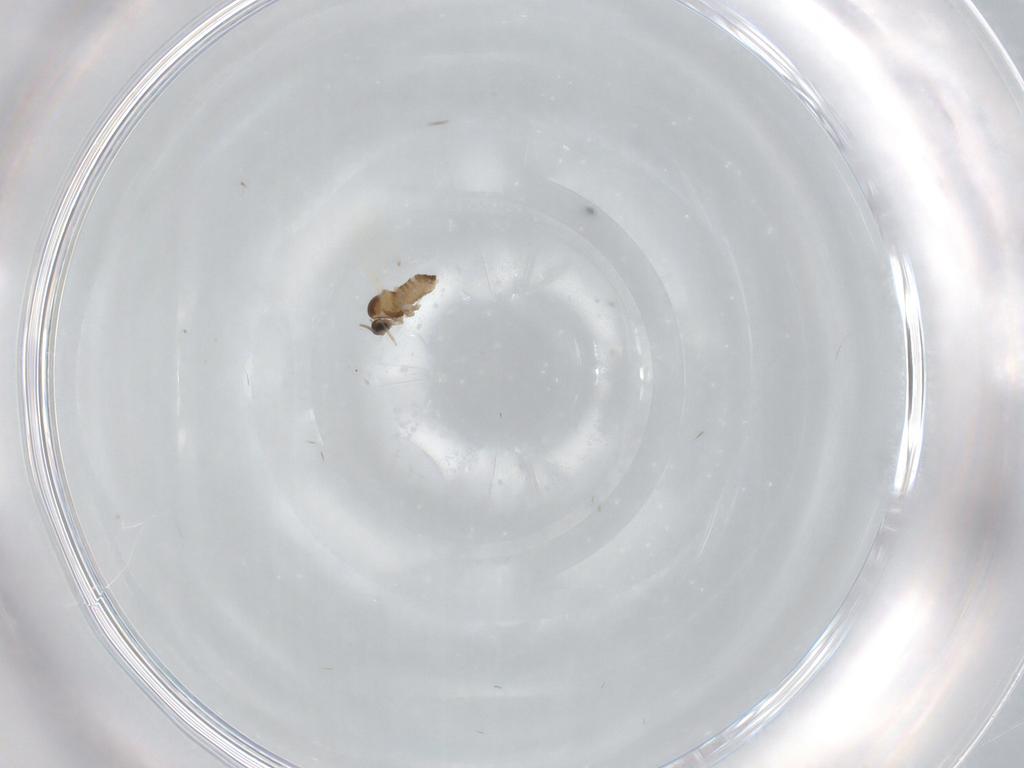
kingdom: Animalia
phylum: Arthropoda
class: Insecta
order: Diptera
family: Cecidomyiidae
